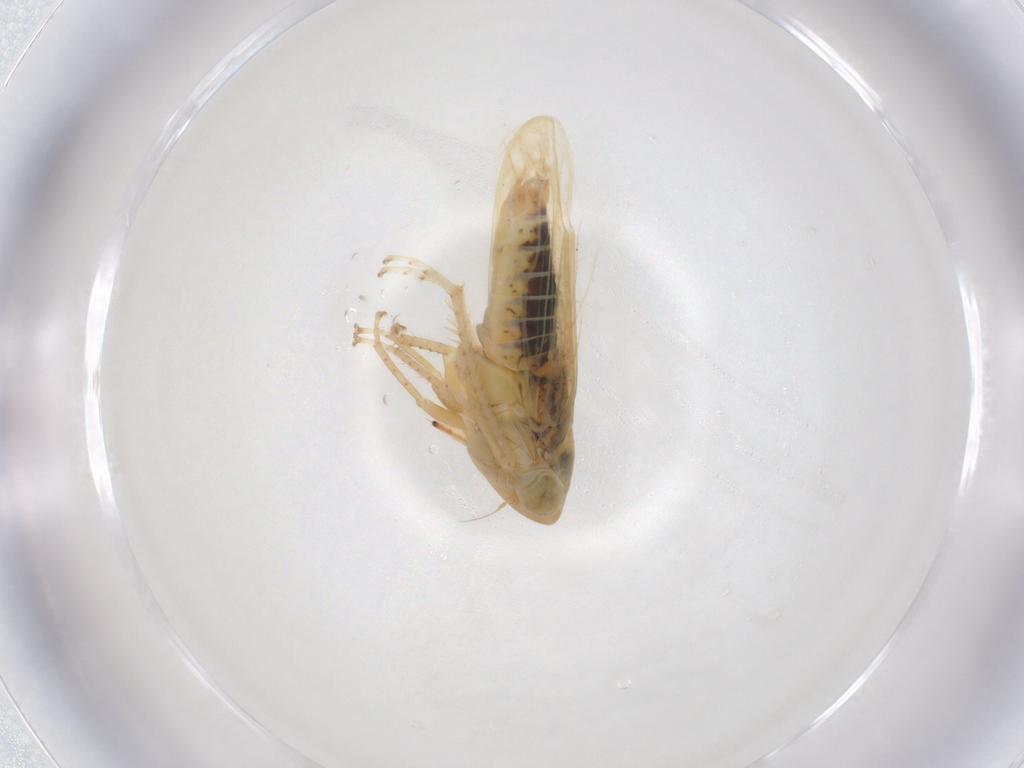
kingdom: Animalia
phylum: Arthropoda
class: Insecta
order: Hemiptera
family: Cicadellidae
